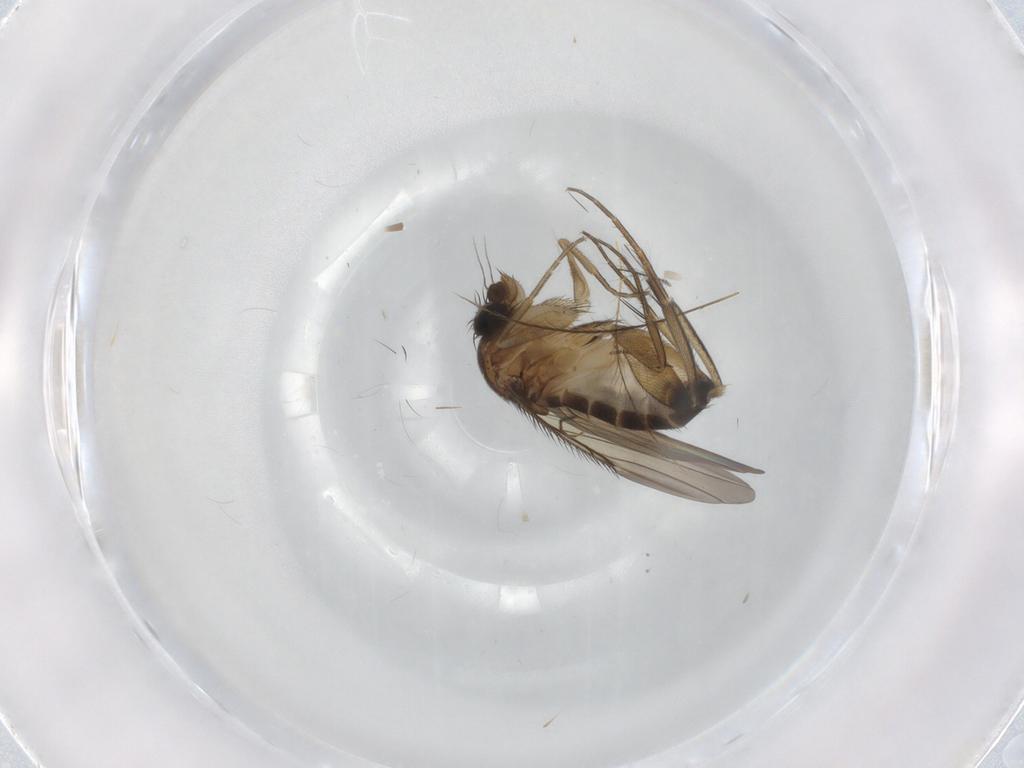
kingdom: Animalia
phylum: Arthropoda
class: Insecta
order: Diptera
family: Phoridae
